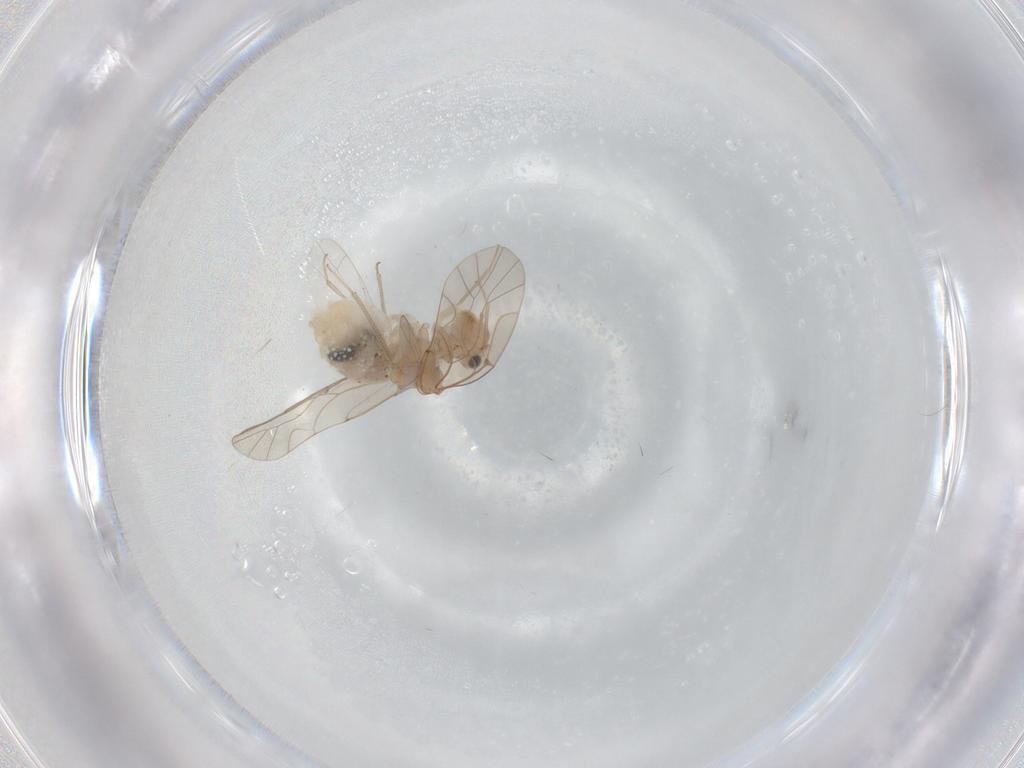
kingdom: Animalia
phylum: Arthropoda
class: Insecta
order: Psocodea
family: Lachesillidae
